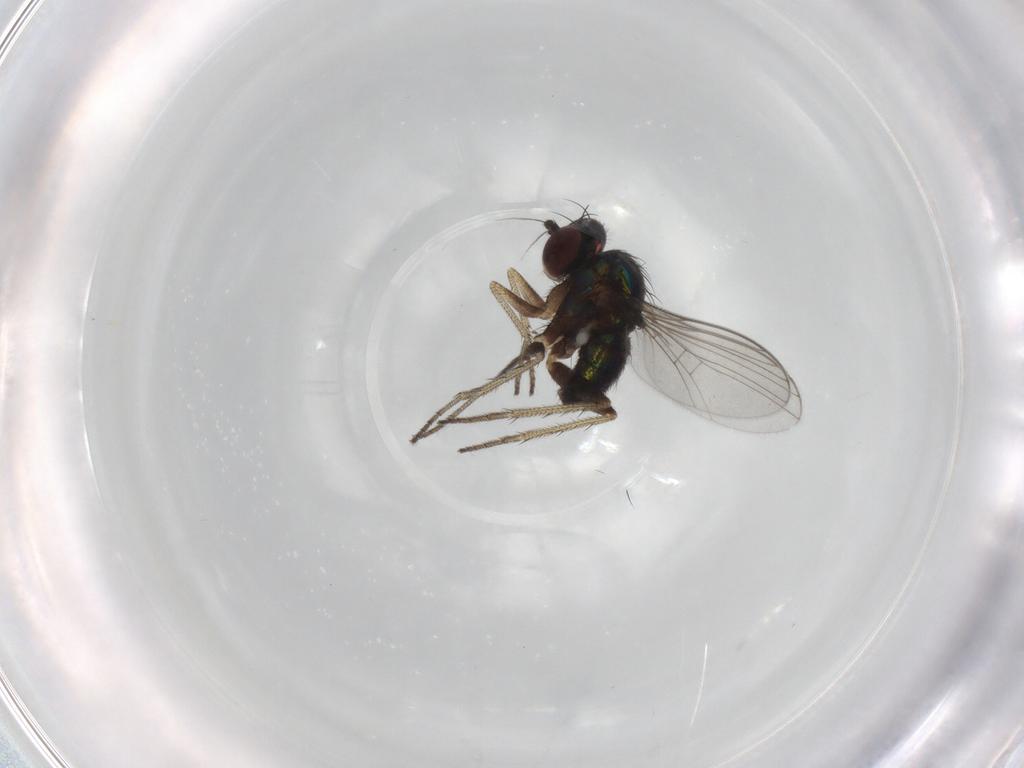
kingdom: Animalia
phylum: Arthropoda
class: Insecta
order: Diptera
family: Dolichopodidae
